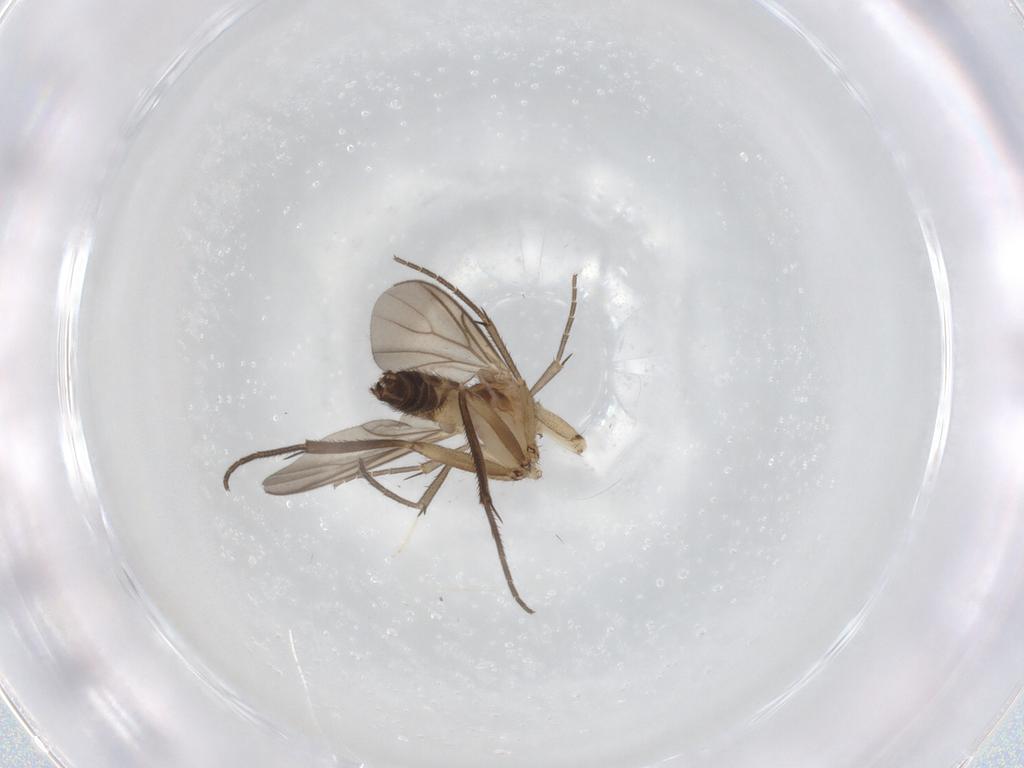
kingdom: Animalia
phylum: Arthropoda
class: Insecta
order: Diptera
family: Mycetophilidae
